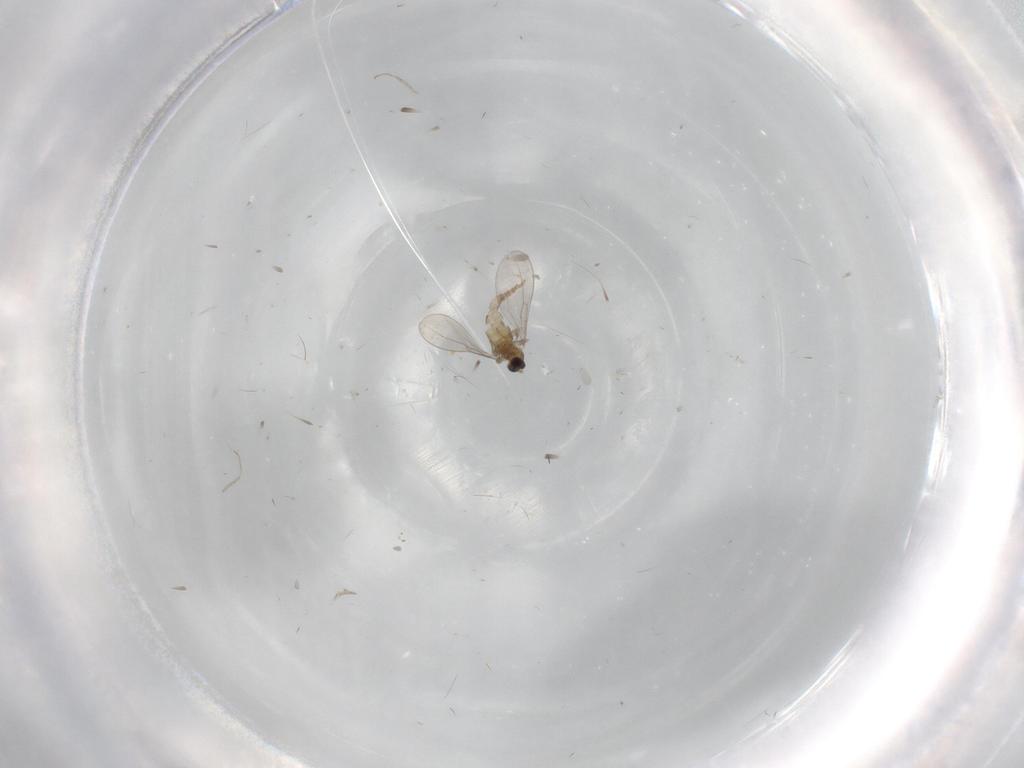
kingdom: Animalia
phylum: Arthropoda
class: Insecta
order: Diptera
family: Cecidomyiidae
